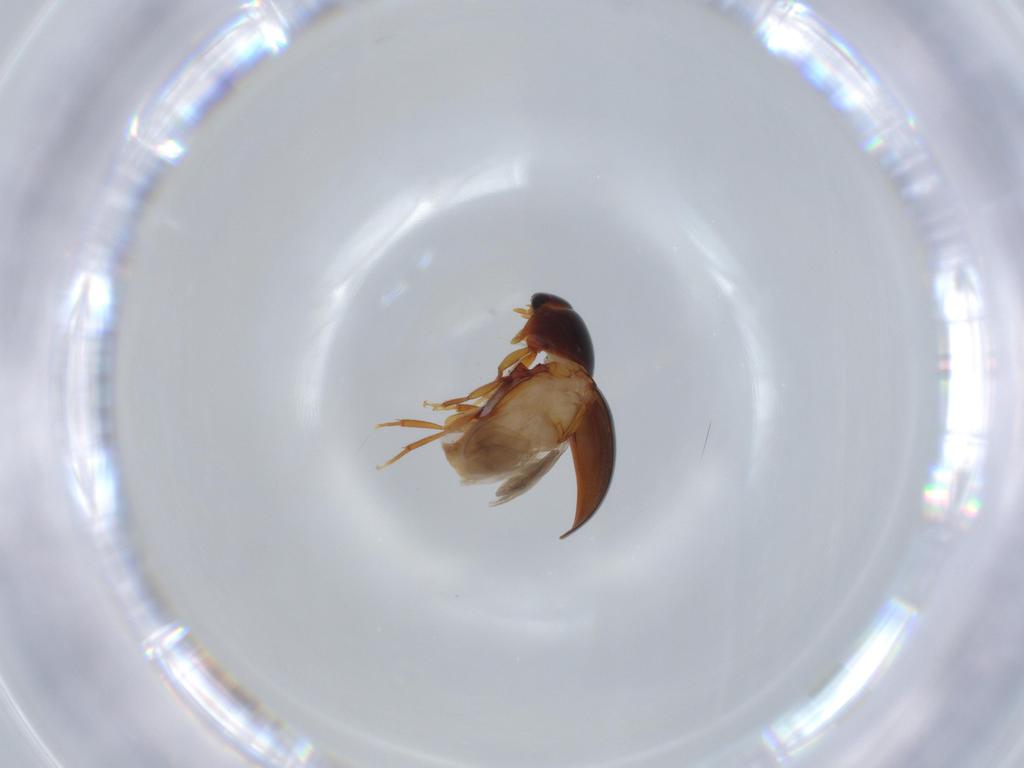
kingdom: Animalia
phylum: Arthropoda
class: Insecta
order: Coleoptera
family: Phalacridae
